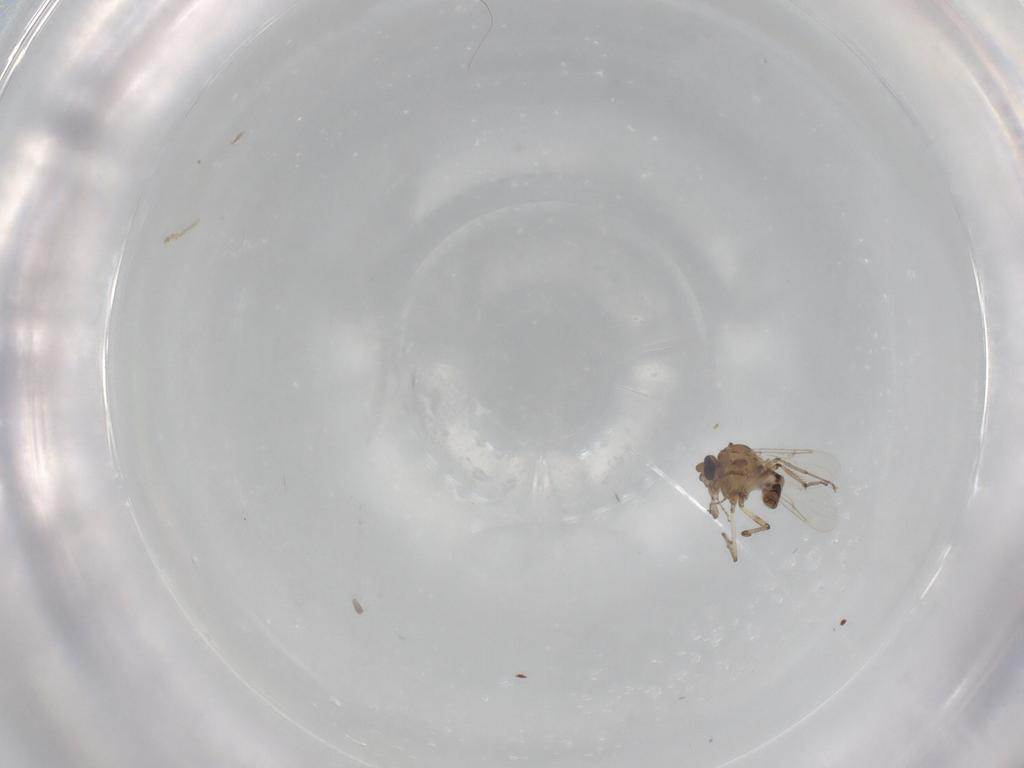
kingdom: Animalia
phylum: Arthropoda
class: Insecta
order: Diptera
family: Ceratopogonidae
